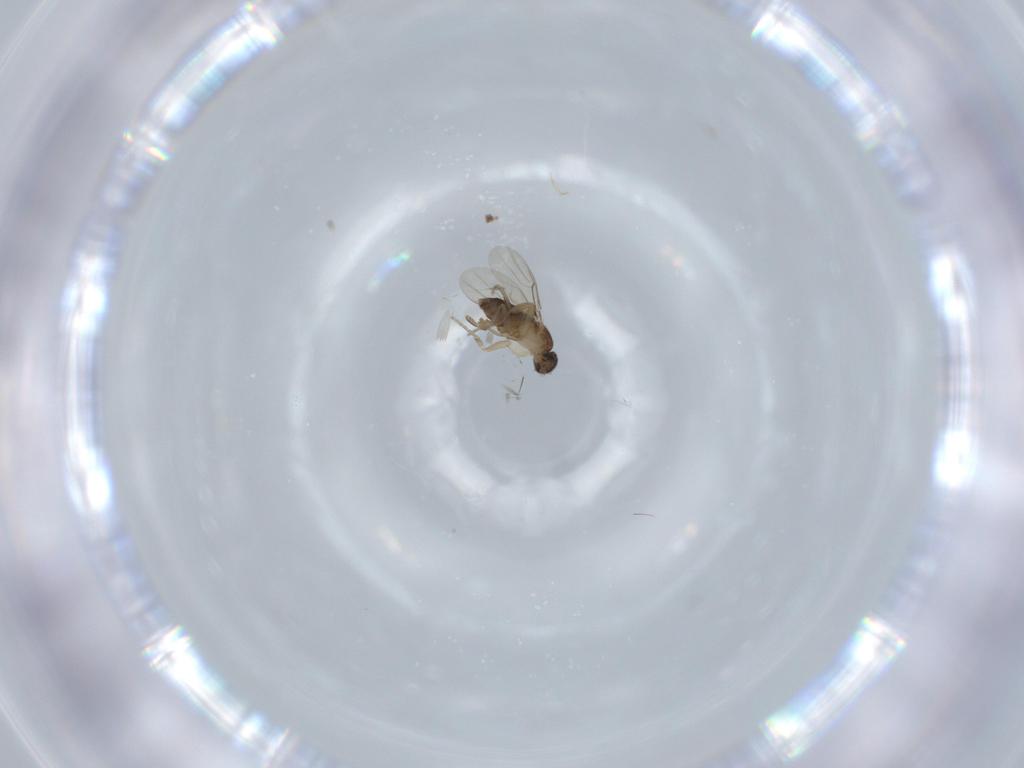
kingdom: Animalia
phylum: Arthropoda
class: Insecta
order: Diptera
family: Phoridae
